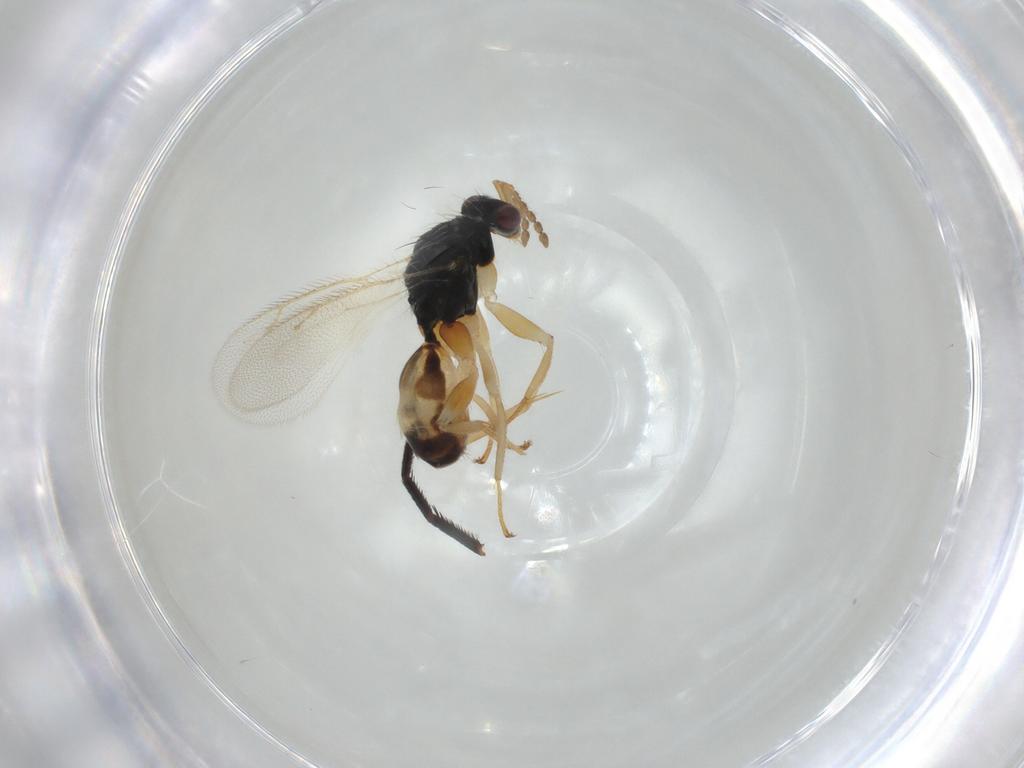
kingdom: Animalia
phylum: Arthropoda
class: Insecta
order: Hymenoptera
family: Eulophidae
